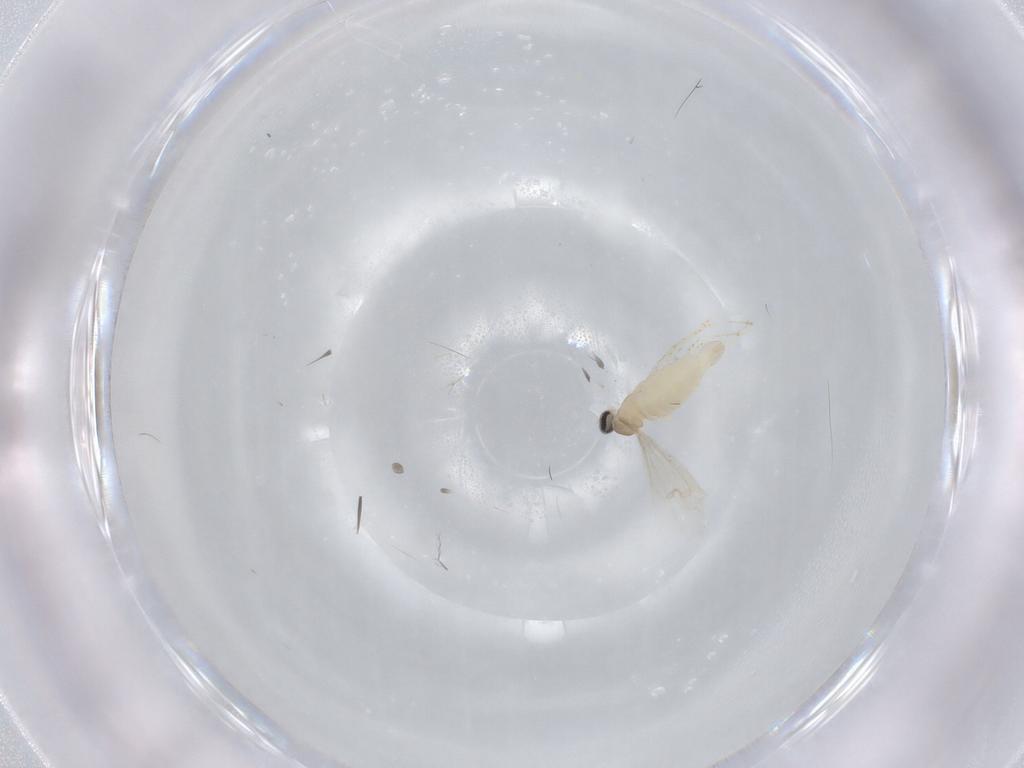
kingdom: Animalia
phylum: Arthropoda
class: Insecta
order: Diptera
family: Cecidomyiidae
